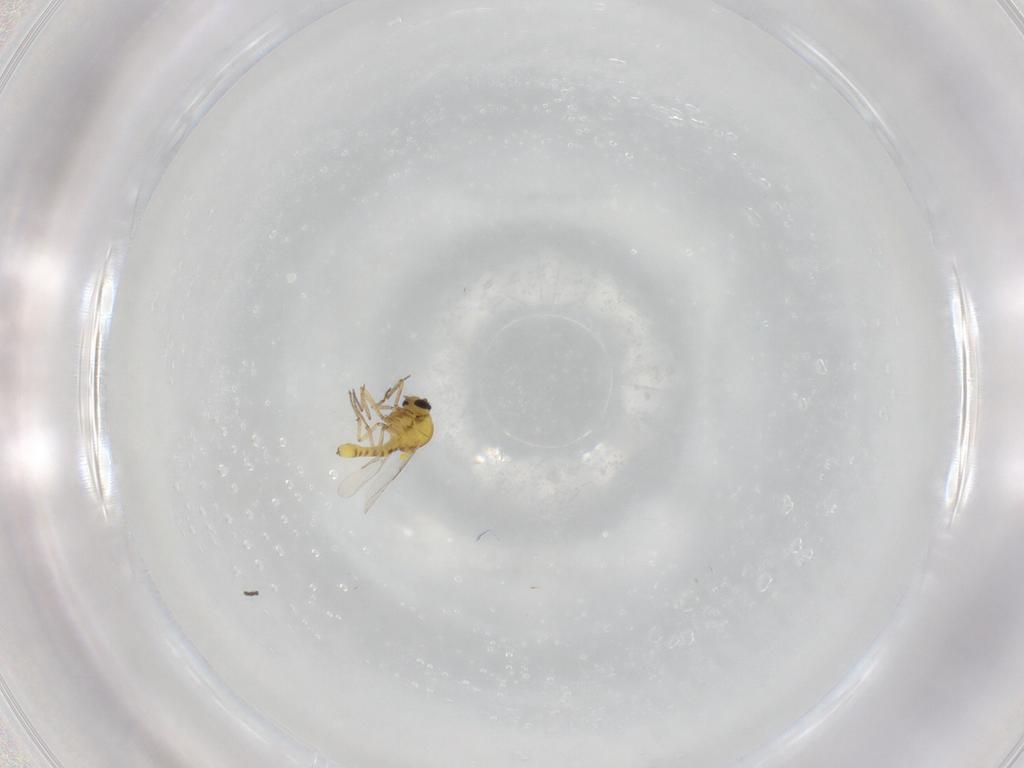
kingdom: Animalia
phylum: Arthropoda
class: Insecta
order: Diptera
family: Ceratopogonidae
